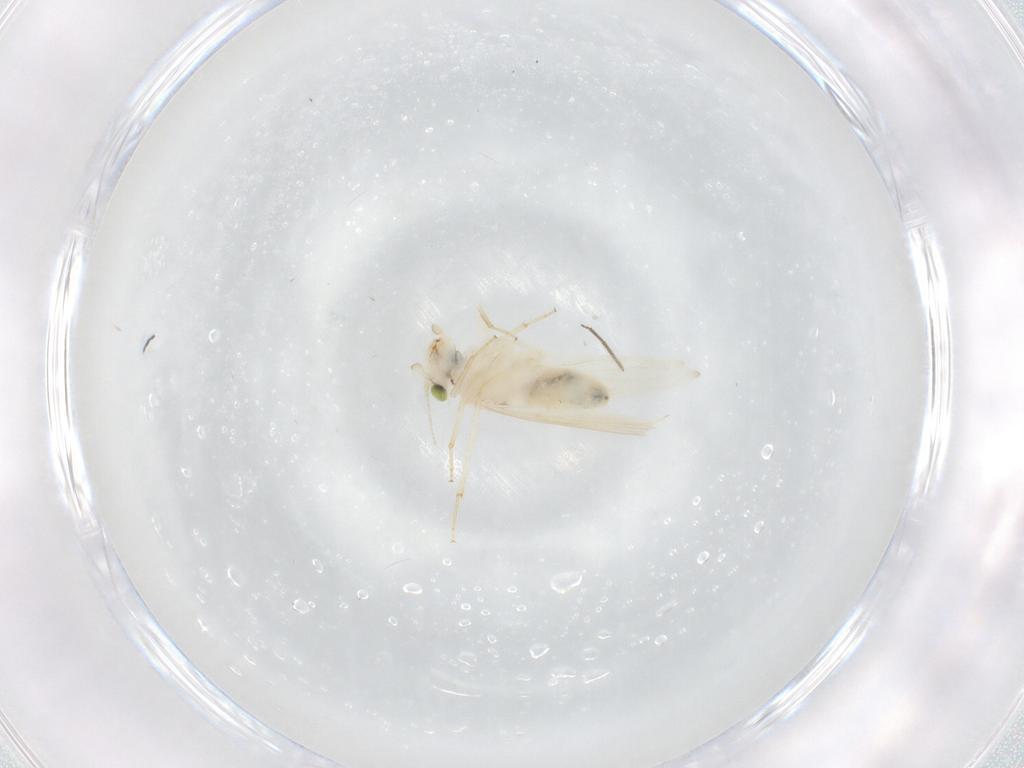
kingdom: Animalia
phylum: Arthropoda
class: Insecta
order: Psocodea
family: Lepidopsocidae
